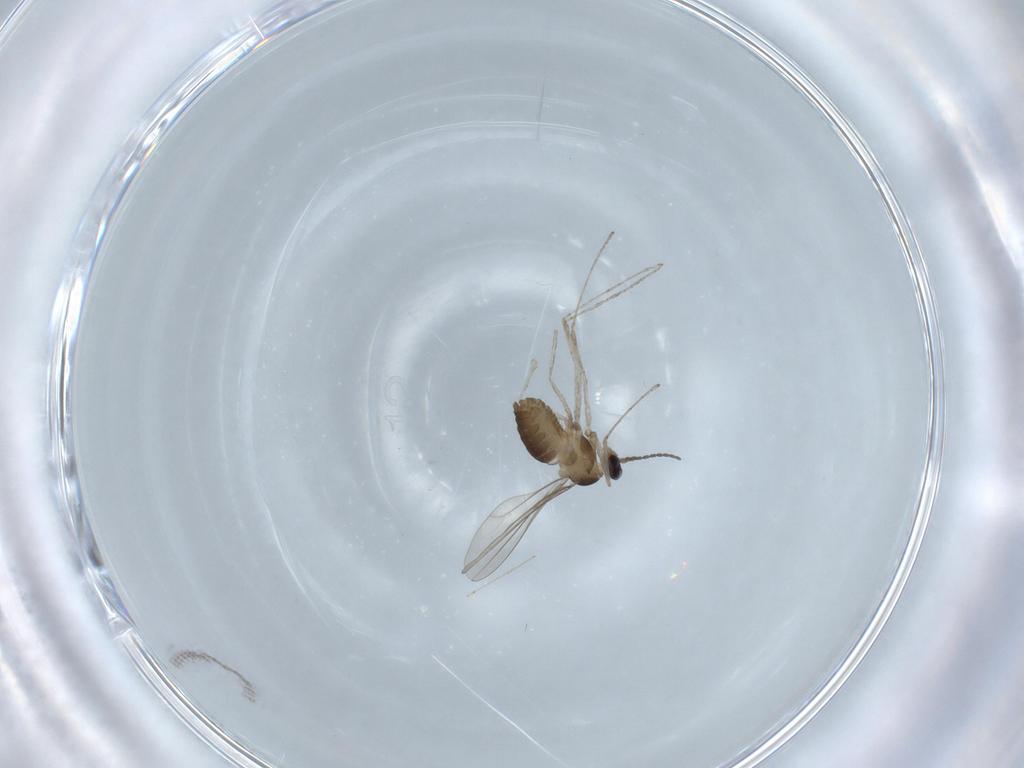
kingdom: Animalia
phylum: Arthropoda
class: Insecta
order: Diptera
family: Cecidomyiidae
